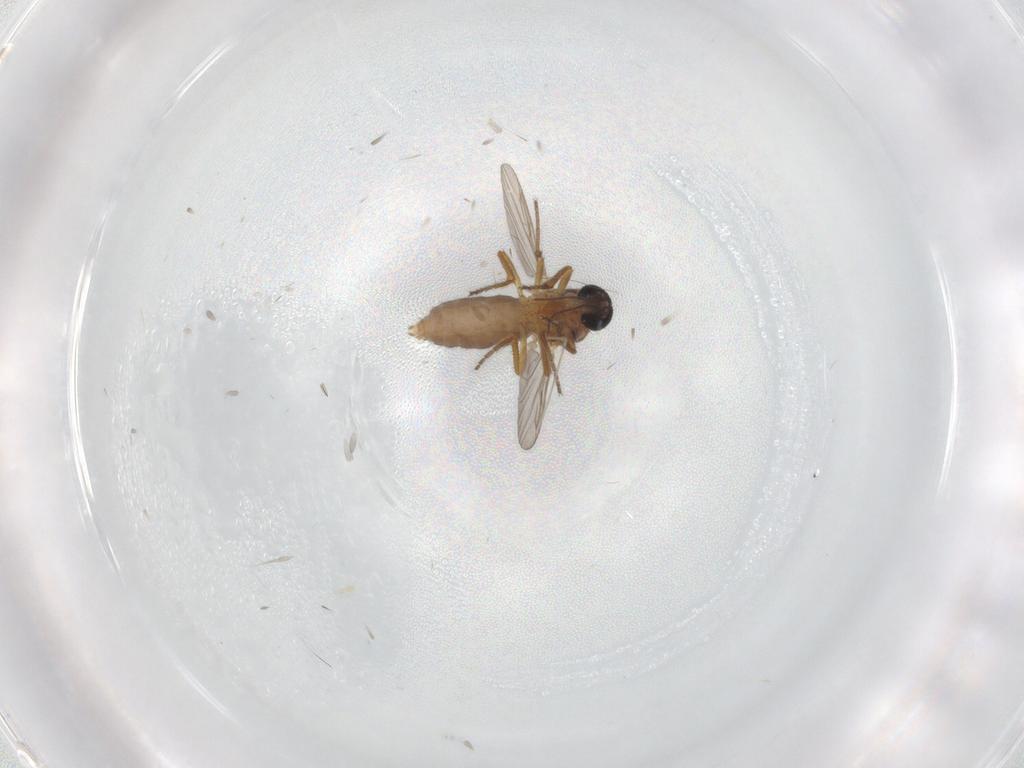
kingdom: Animalia
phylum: Arthropoda
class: Insecta
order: Diptera
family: Ceratopogonidae
